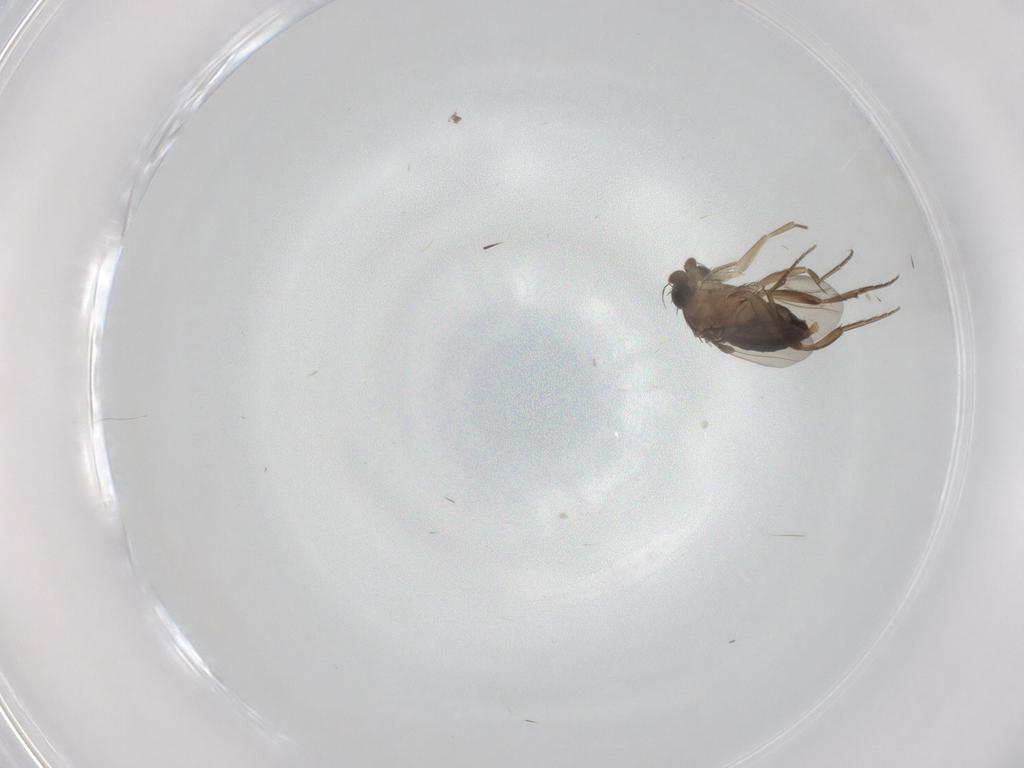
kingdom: Animalia
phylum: Arthropoda
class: Insecta
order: Diptera
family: Phoridae
